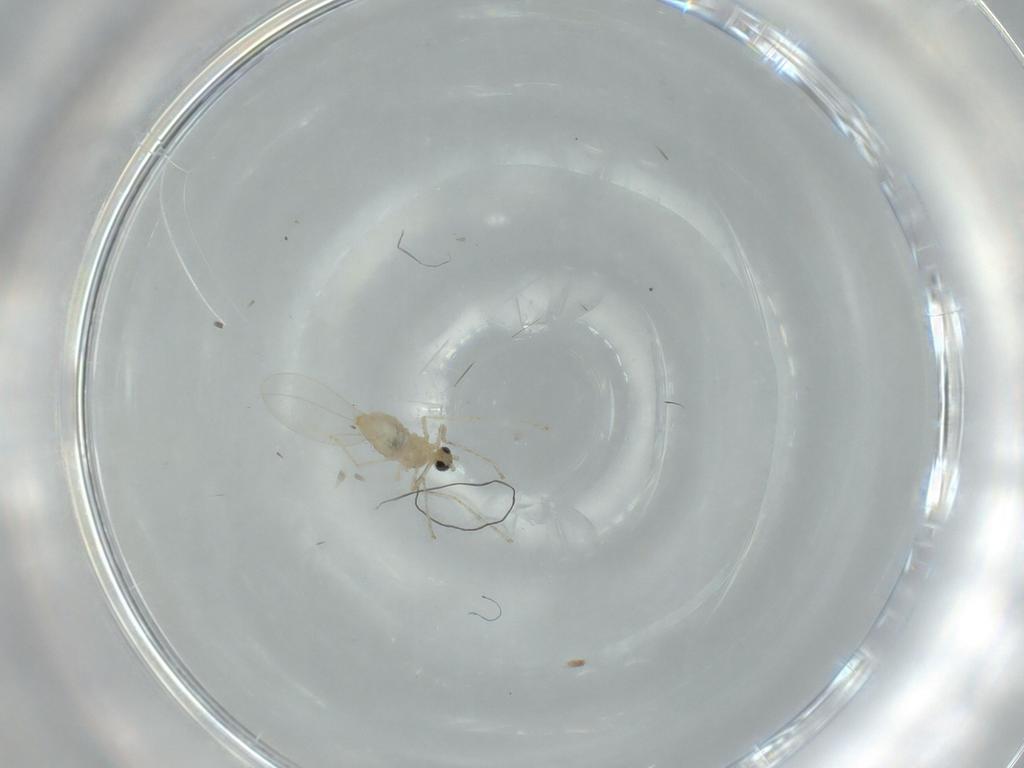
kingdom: Animalia
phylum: Arthropoda
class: Insecta
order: Diptera
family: Cecidomyiidae
